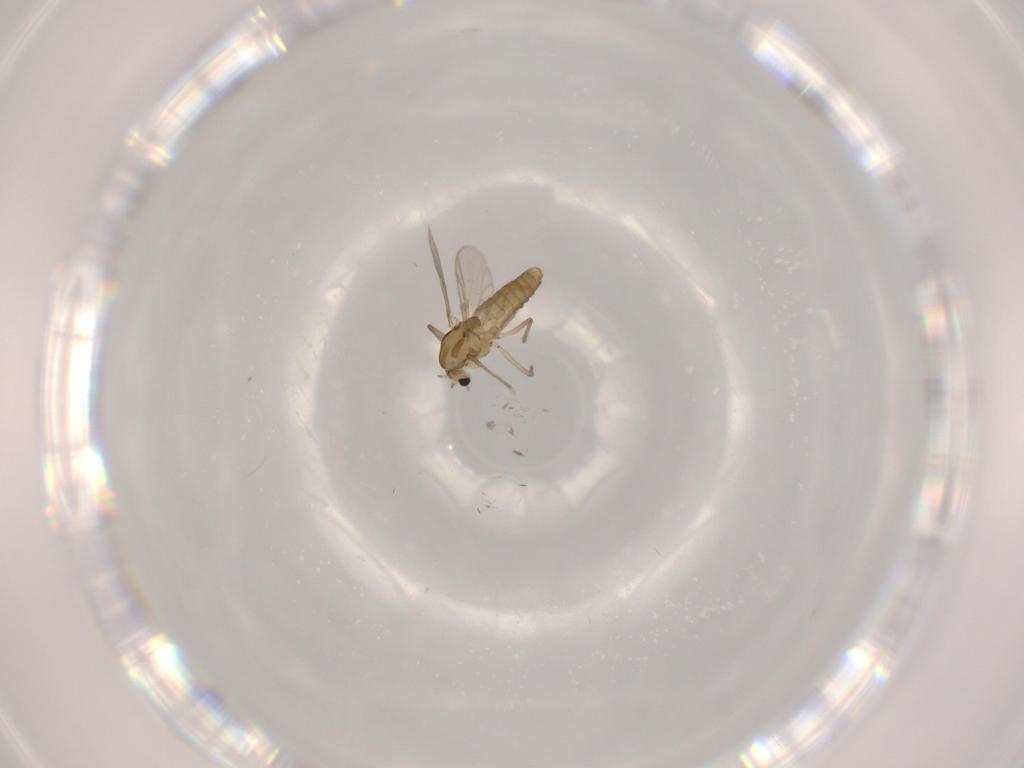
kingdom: Animalia
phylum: Arthropoda
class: Insecta
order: Diptera
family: Chironomidae
